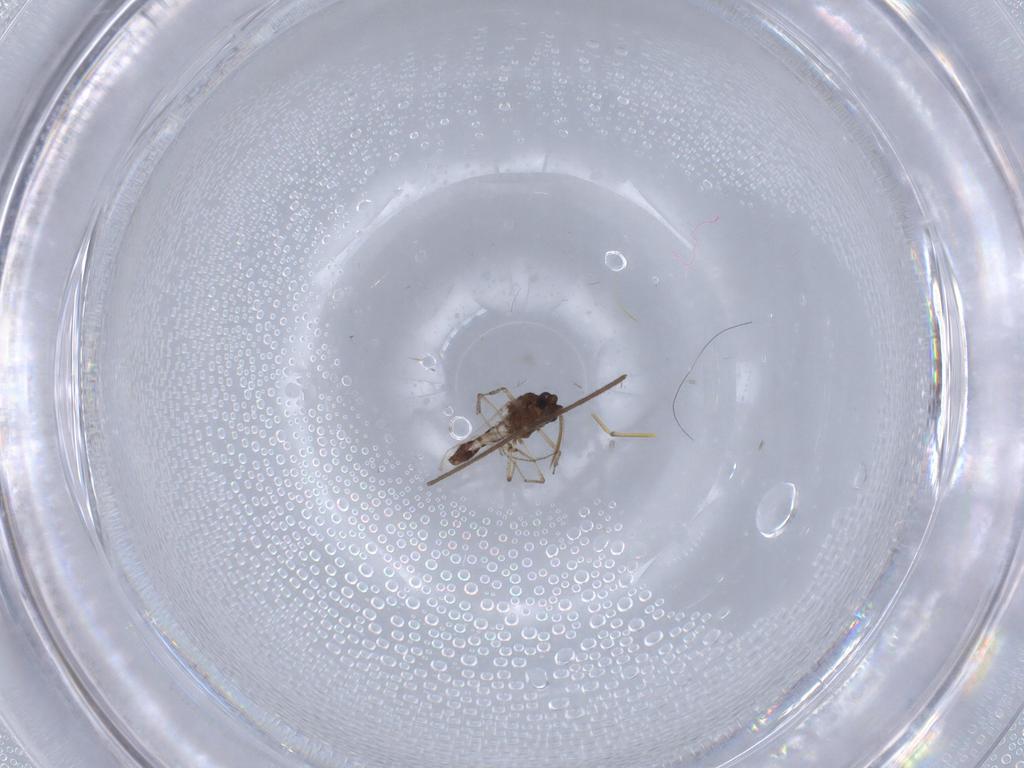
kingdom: Animalia
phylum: Arthropoda
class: Insecta
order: Diptera
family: Chironomidae
